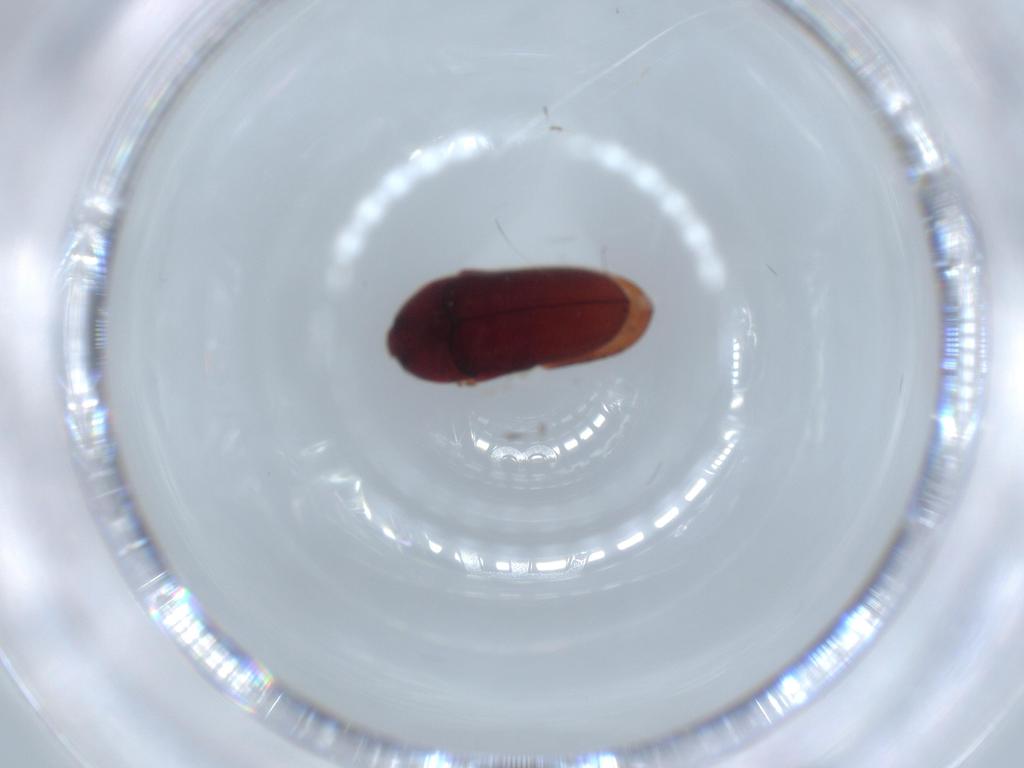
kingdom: Animalia
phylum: Arthropoda
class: Insecta
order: Coleoptera
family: Throscidae
